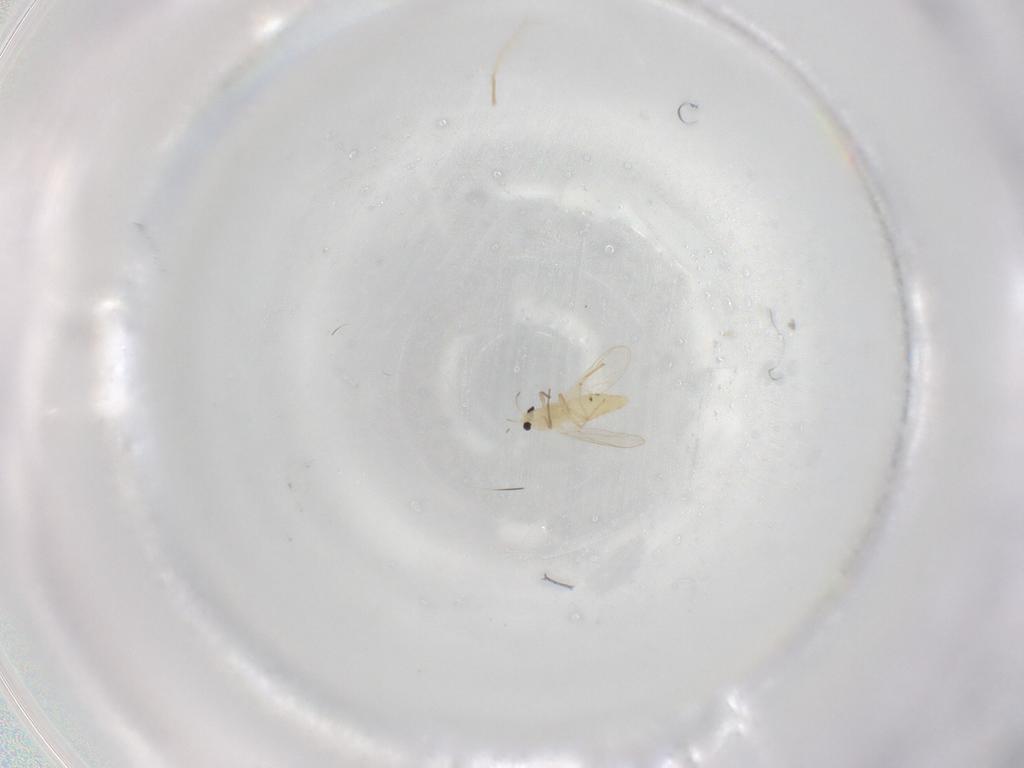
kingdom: Animalia
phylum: Arthropoda
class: Insecta
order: Diptera
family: Chironomidae
